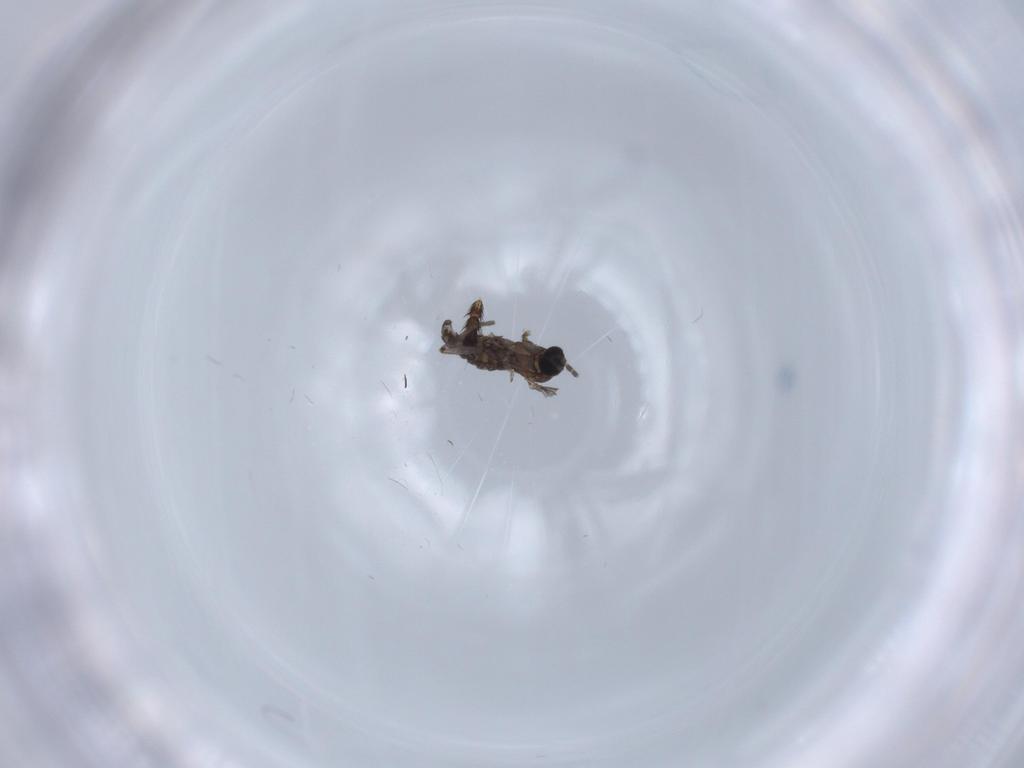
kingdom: Animalia
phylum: Arthropoda
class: Insecta
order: Diptera
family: Sciaridae
